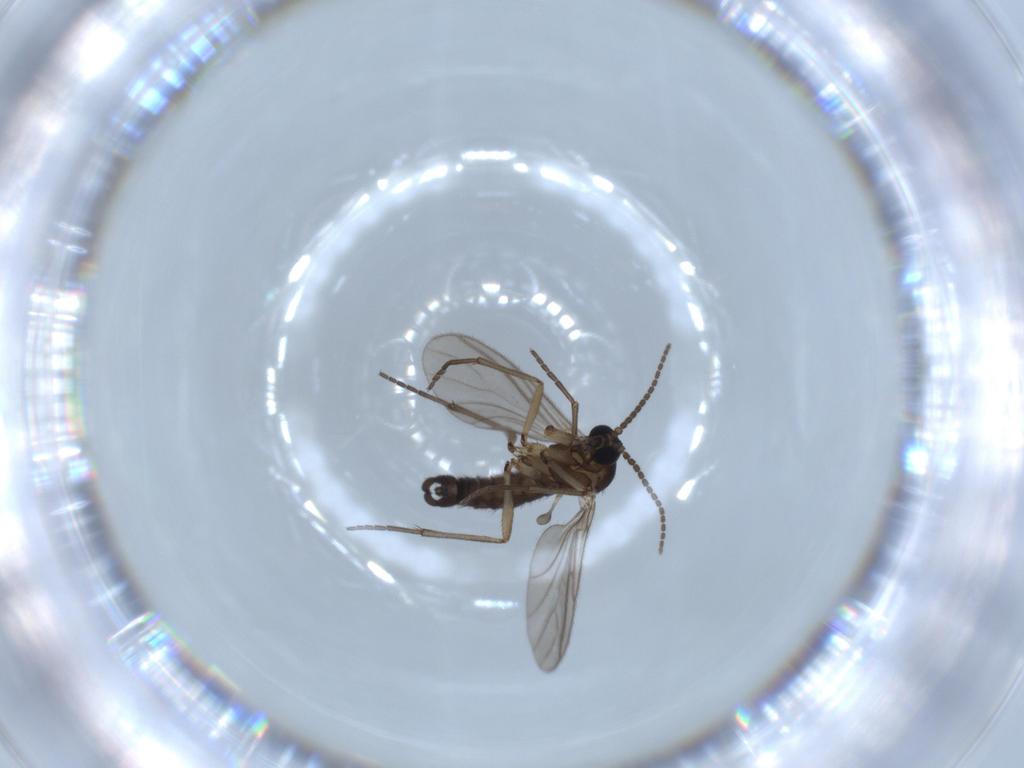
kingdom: Animalia
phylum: Arthropoda
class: Insecta
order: Diptera
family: Sciaridae
